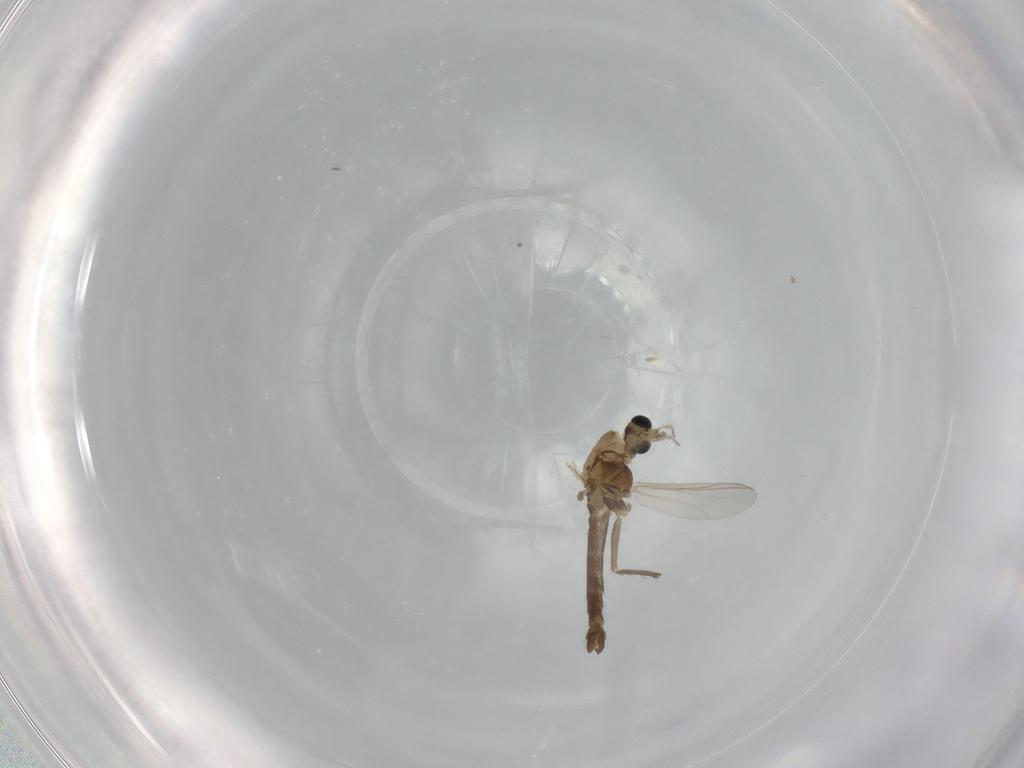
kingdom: Animalia
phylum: Arthropoda
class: Insecta
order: Diptera
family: Chironomidae
